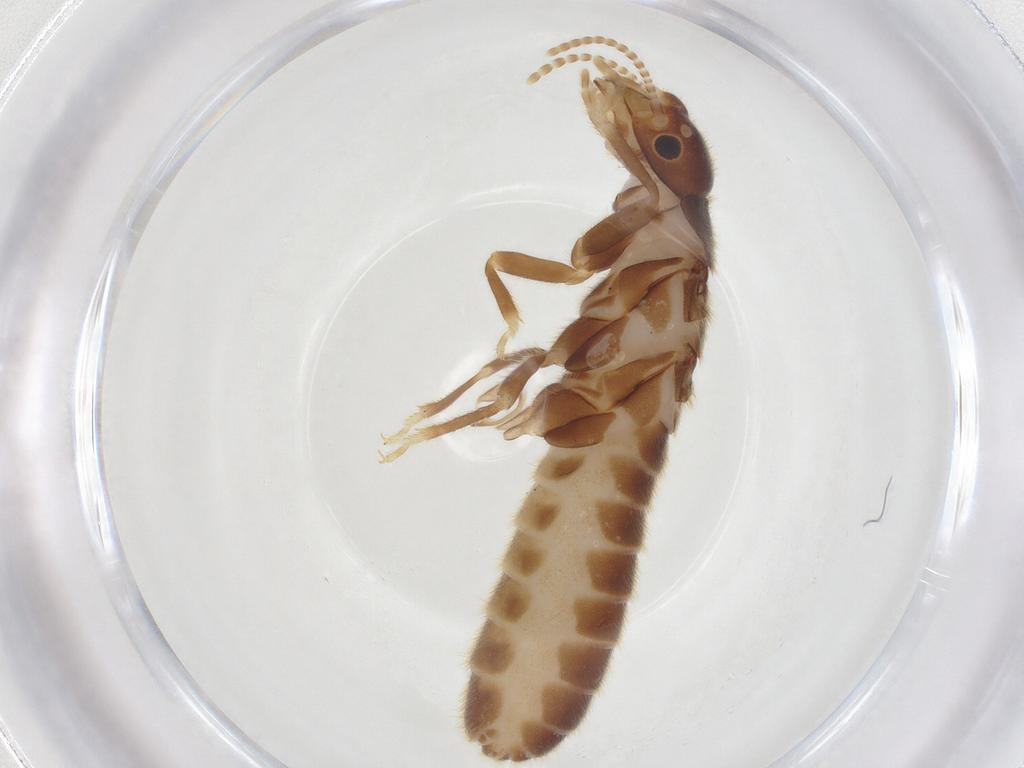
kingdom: Animalia
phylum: Arthropoda
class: Insecta
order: Blattodea
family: Termitidae
